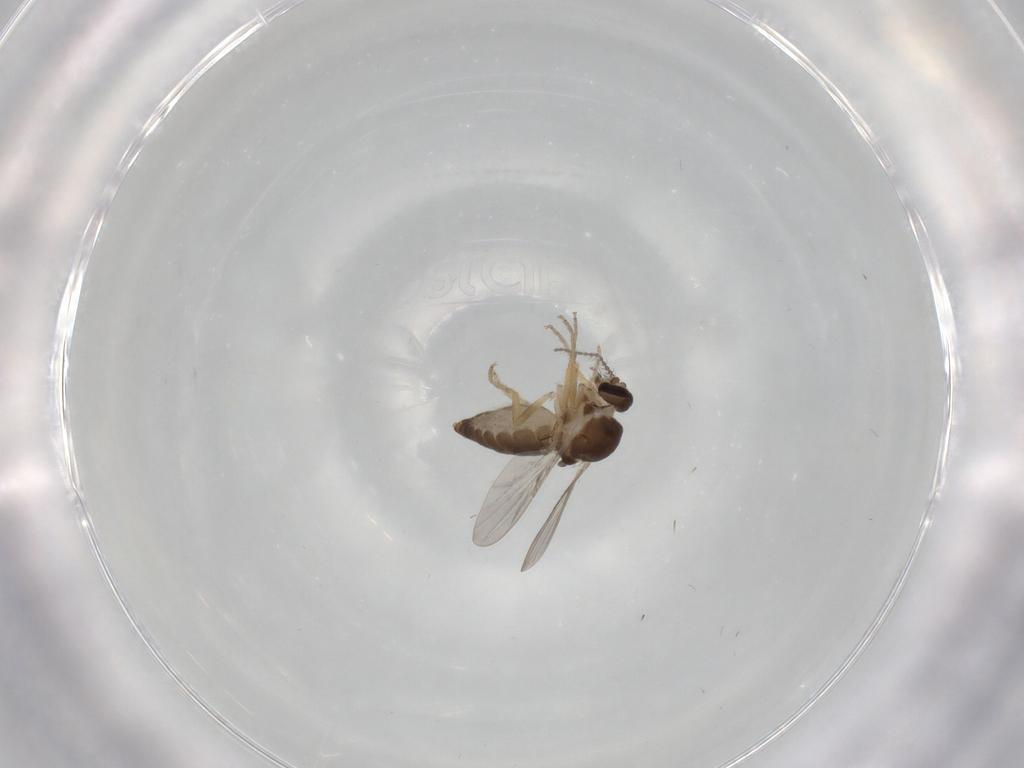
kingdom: Animalia
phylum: Arthropoda
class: Insecta
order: Diptera
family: Ceratopogonidae
